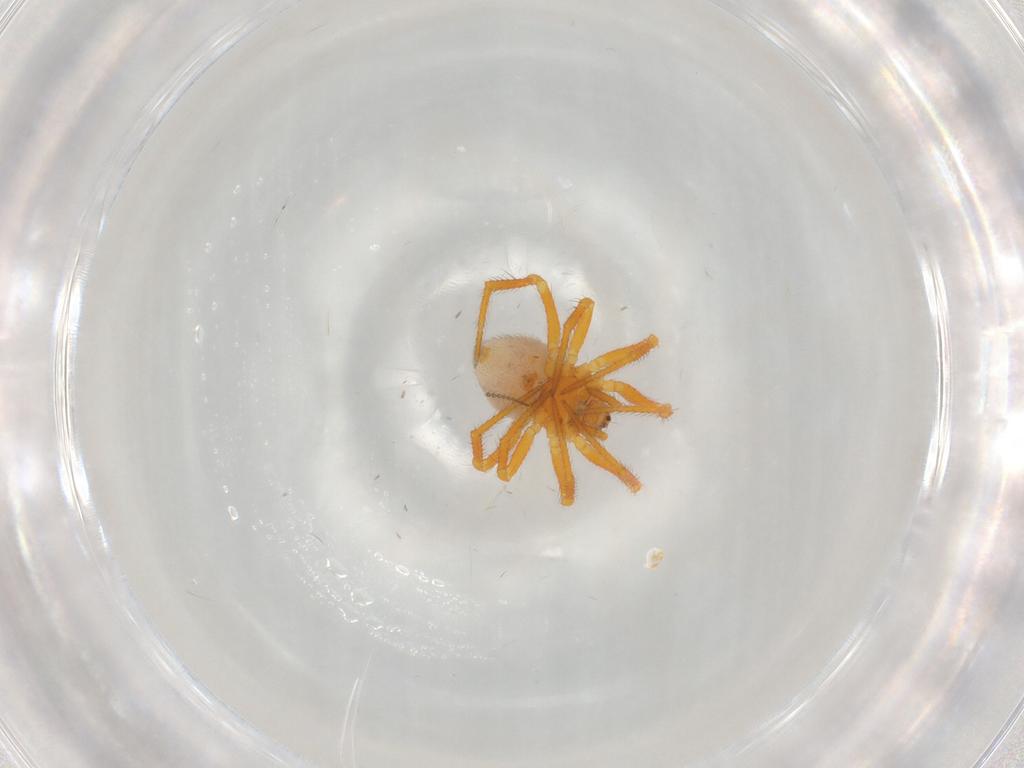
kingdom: Animalia
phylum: Arthropoda
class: Arachnida
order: Araneae
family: Theridiidae
